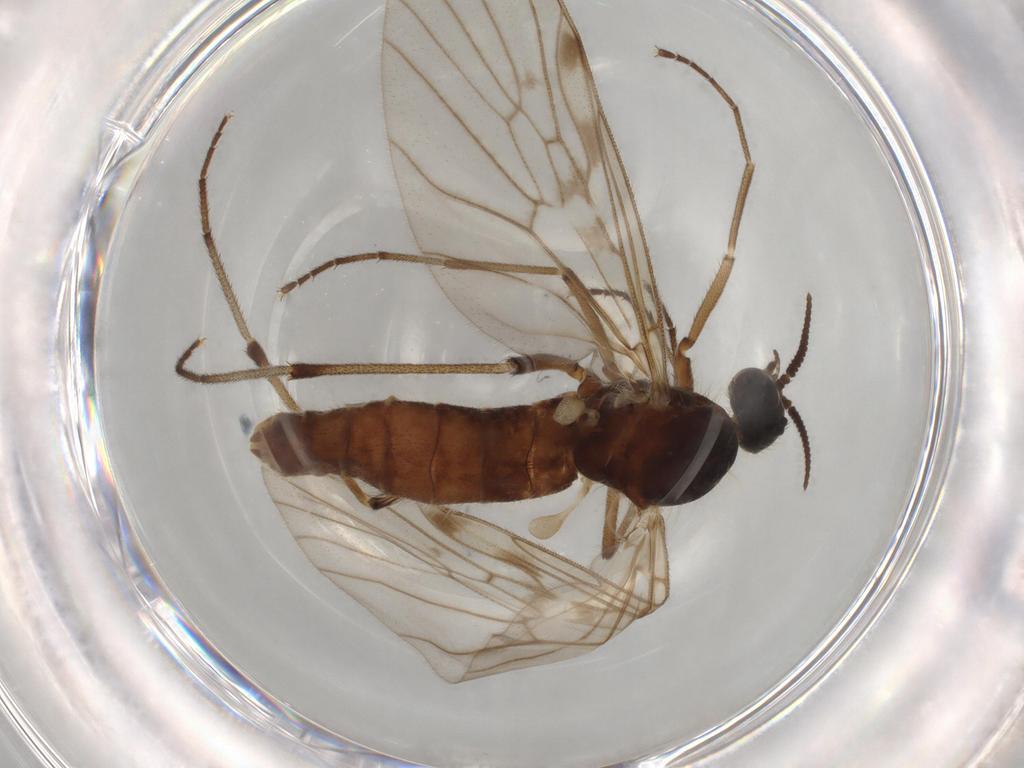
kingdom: Animalia
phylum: Arthropoda
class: Insecta
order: Diptera
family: Anisopodidae
